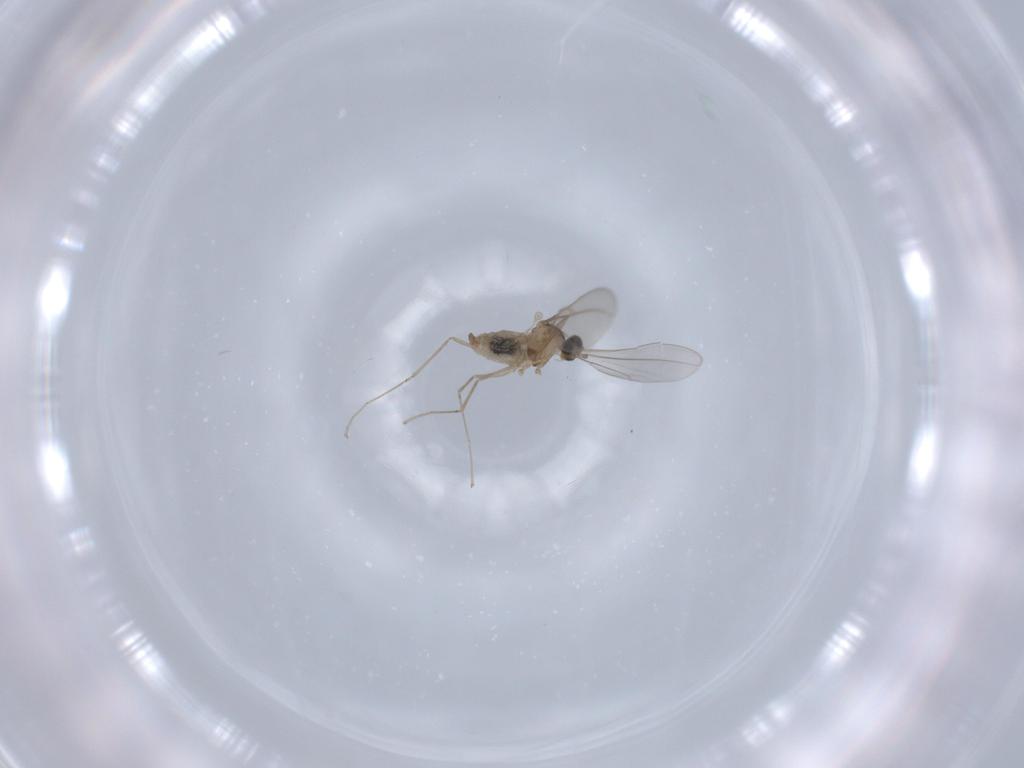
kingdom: Animalia
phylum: Arthropoda
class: Insecta
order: Diptera
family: Cecidomyiidae
